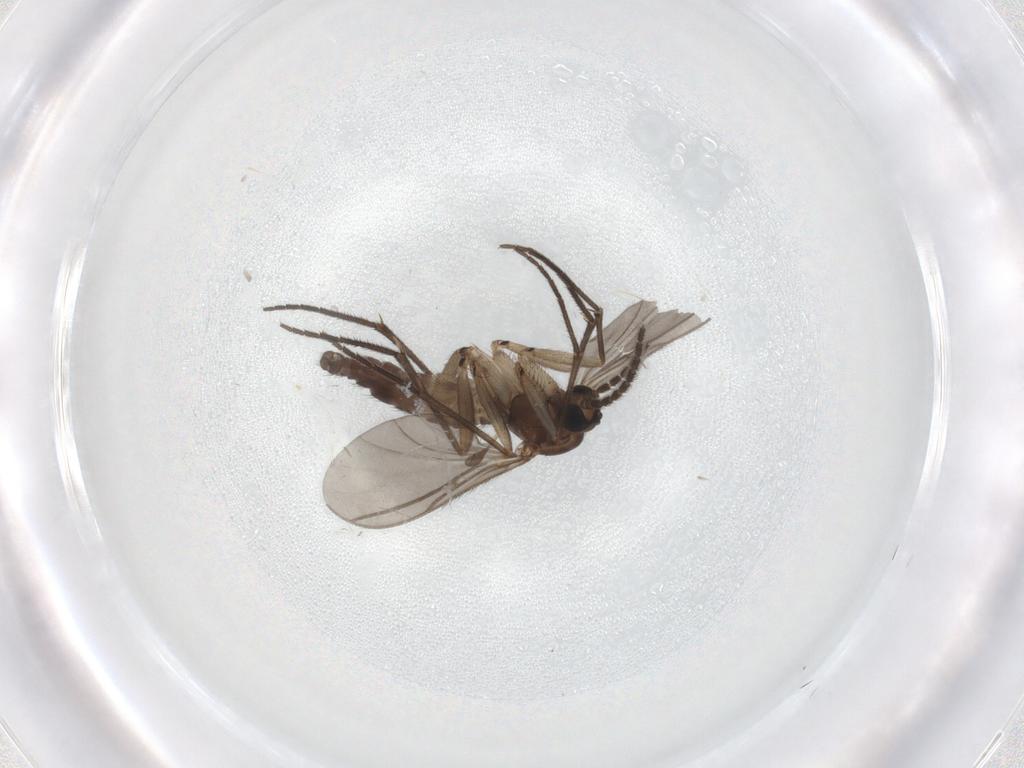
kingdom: Animalia
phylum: Arthropoda
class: Insecta
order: Diptera
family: Sciaridae
